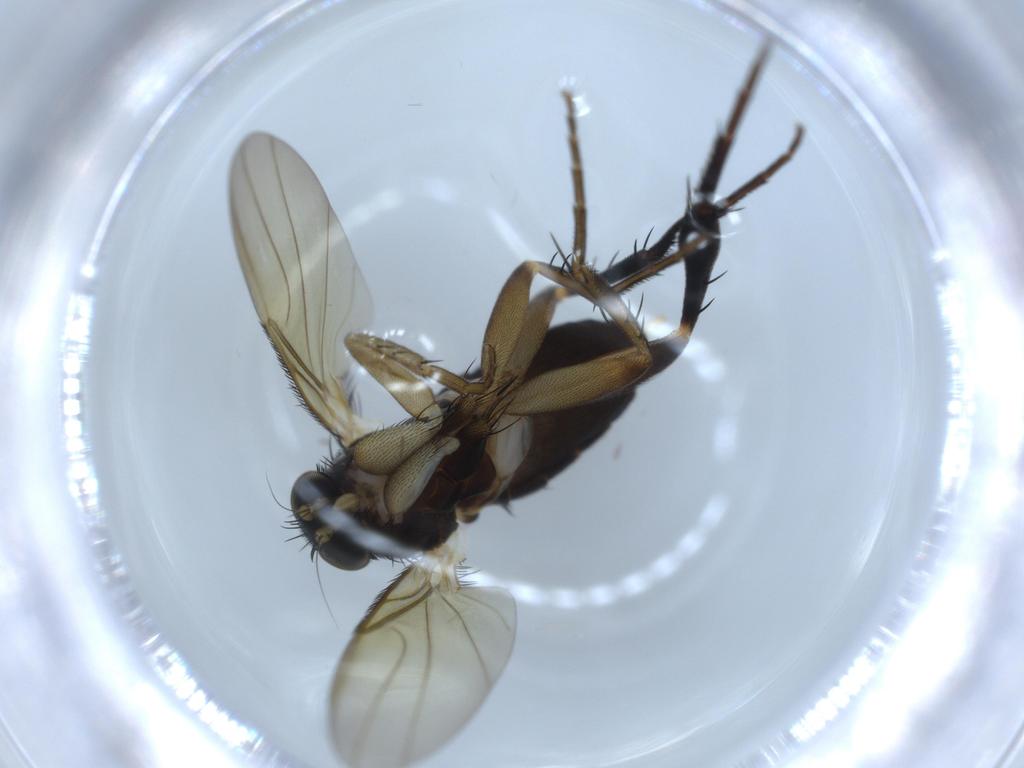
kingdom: Animalia
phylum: Arthropoda
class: Insecta
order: Diptera
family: Phoridae
